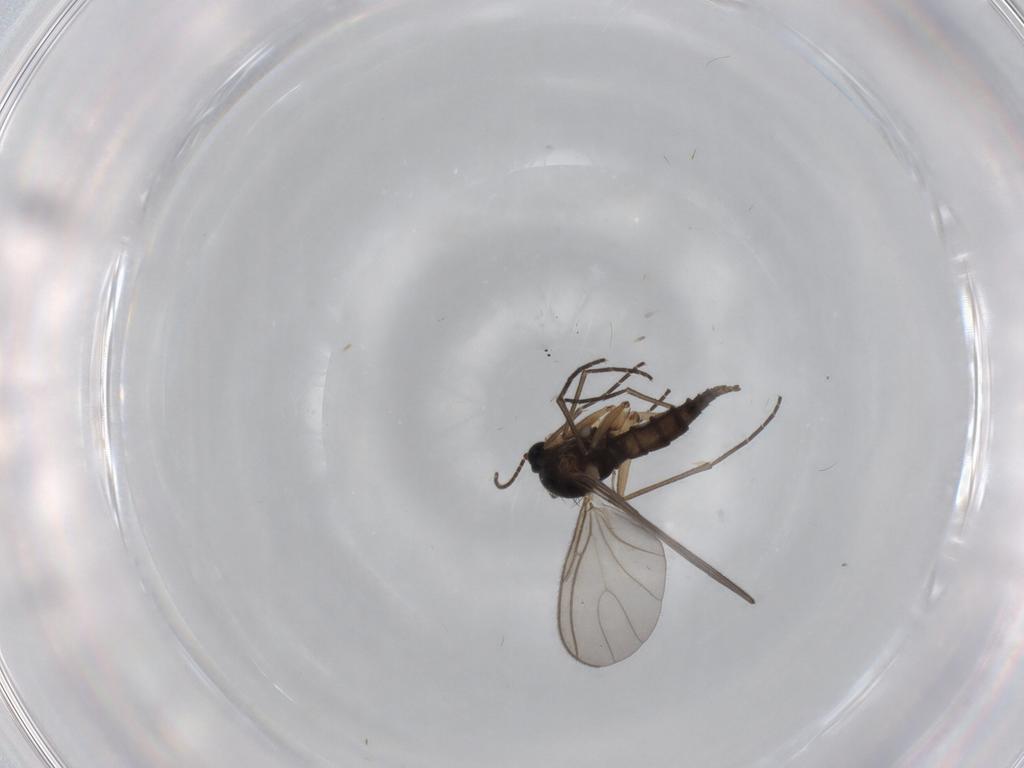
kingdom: Animalia
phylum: Arthropoda
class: Insecta
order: Diptera
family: Sciaridae
